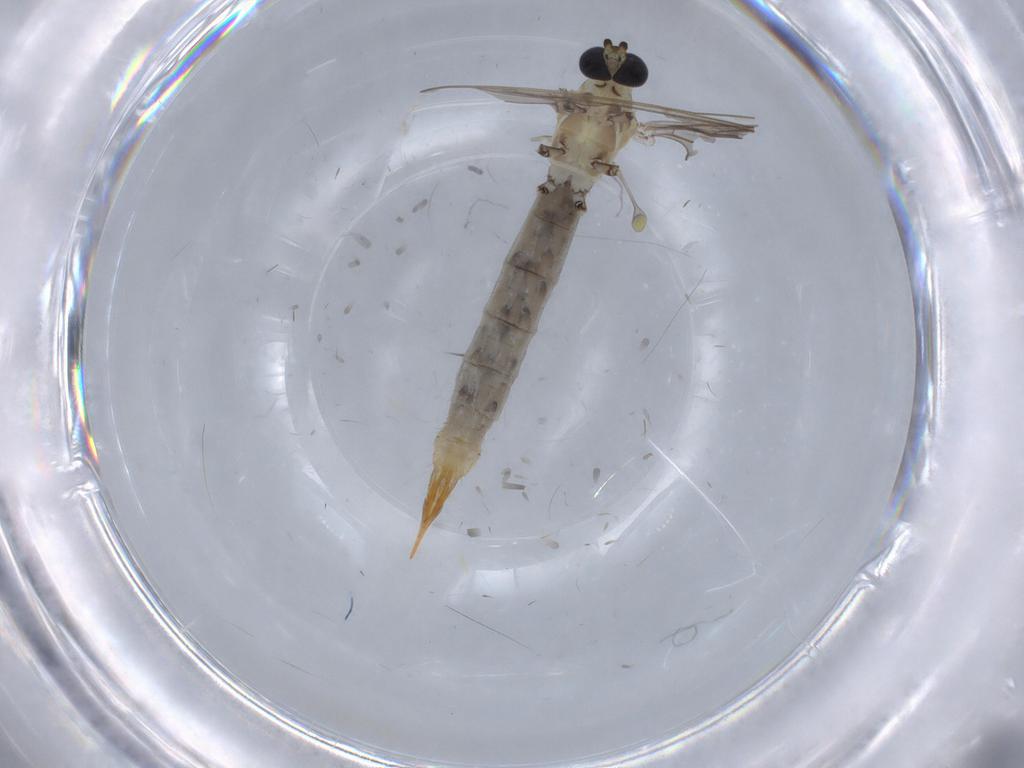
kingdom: Animalia
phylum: Arthropoda
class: Insecta
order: Diptera
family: Limoniidae
